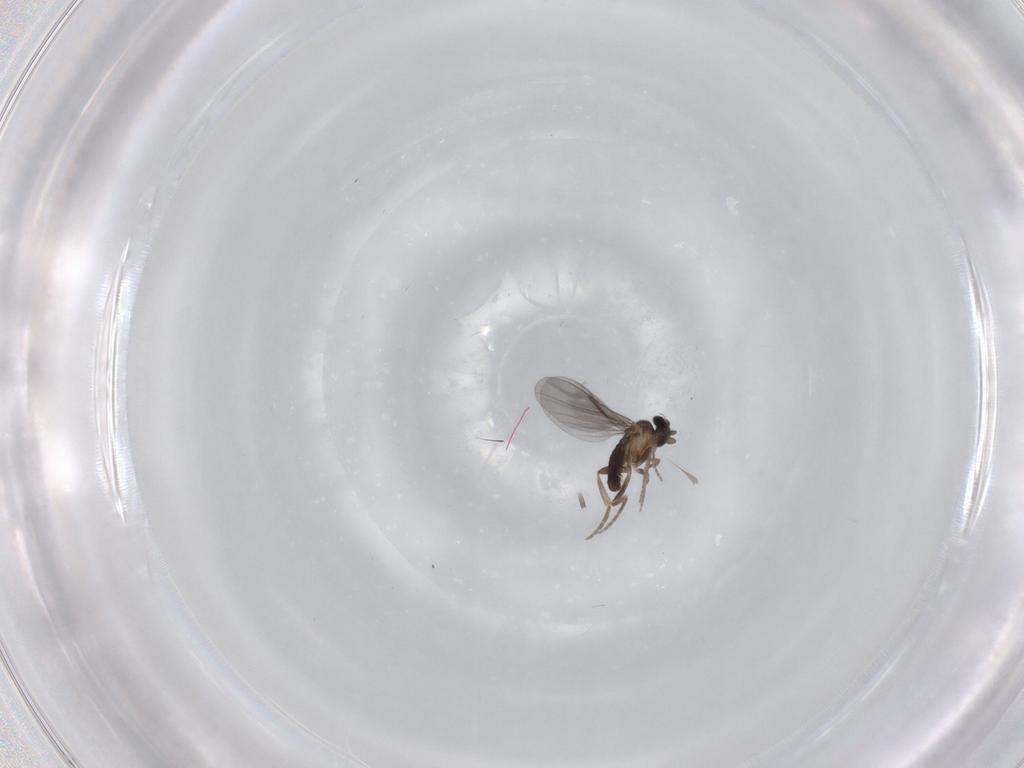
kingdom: Animalia
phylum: Arthropoda
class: Insecta
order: Diptera
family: Phoridae
